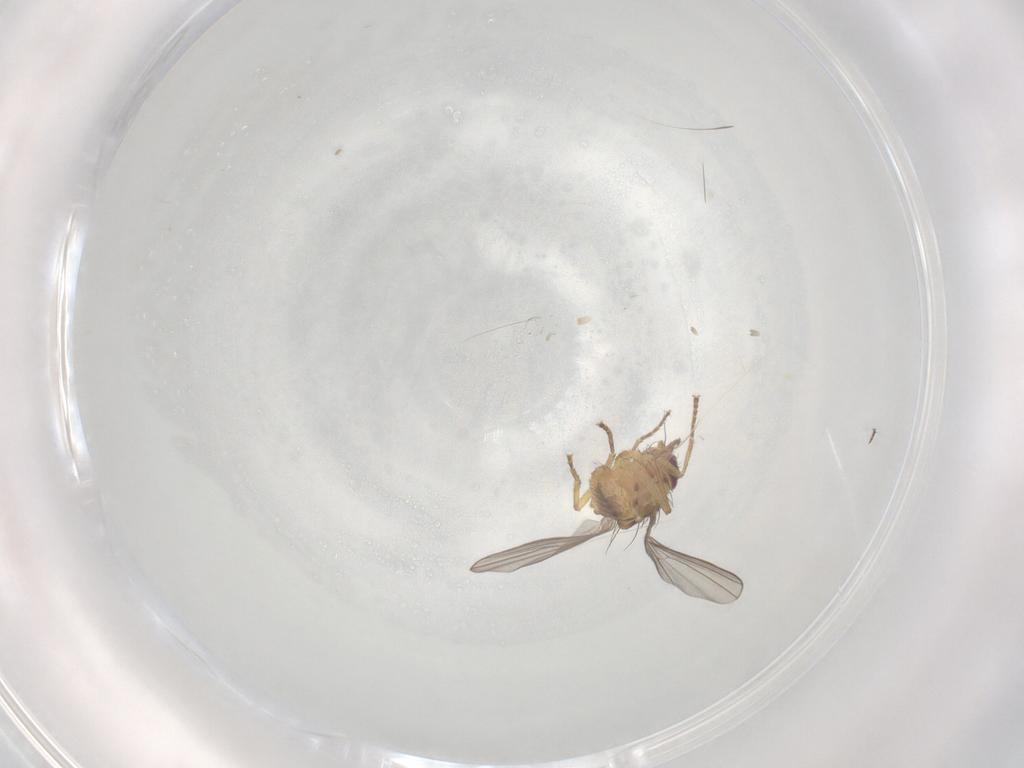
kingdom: Animalia
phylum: Arthropoda
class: Insecta
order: Diptera
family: Agromyzidae
